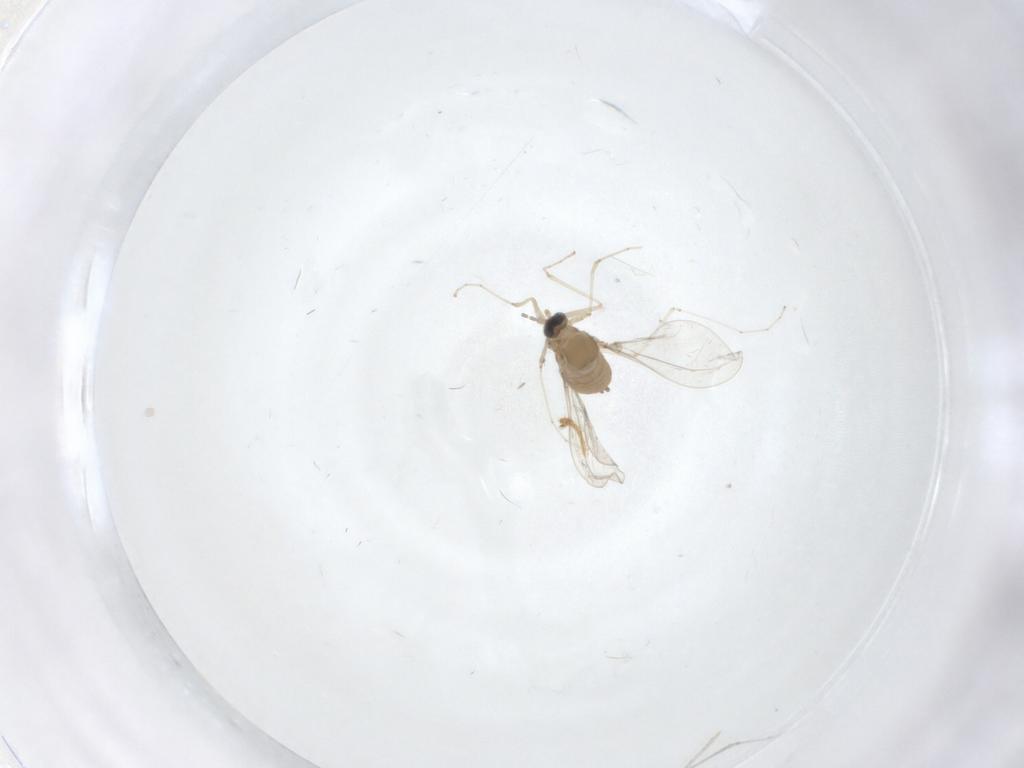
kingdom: Animalia
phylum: Arthropoda
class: Insecta
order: Diptera
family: Cecidomyiidae
